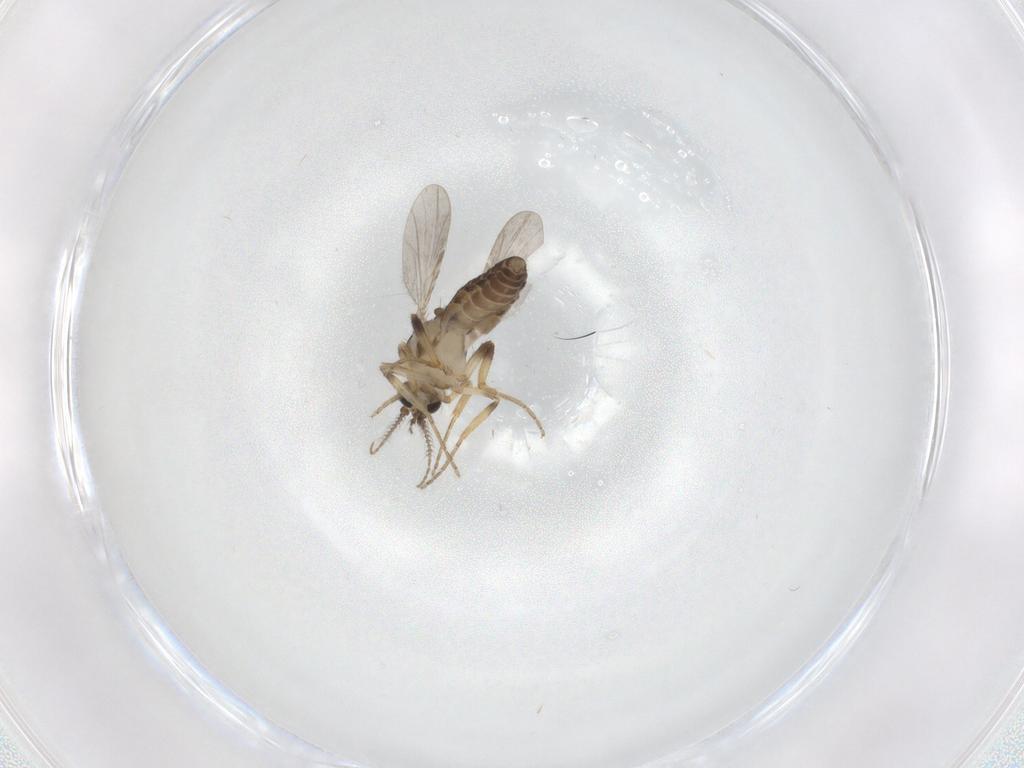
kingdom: Animalia
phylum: Arthropoda
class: Insecta
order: Diptera
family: Ceratopogonidae
